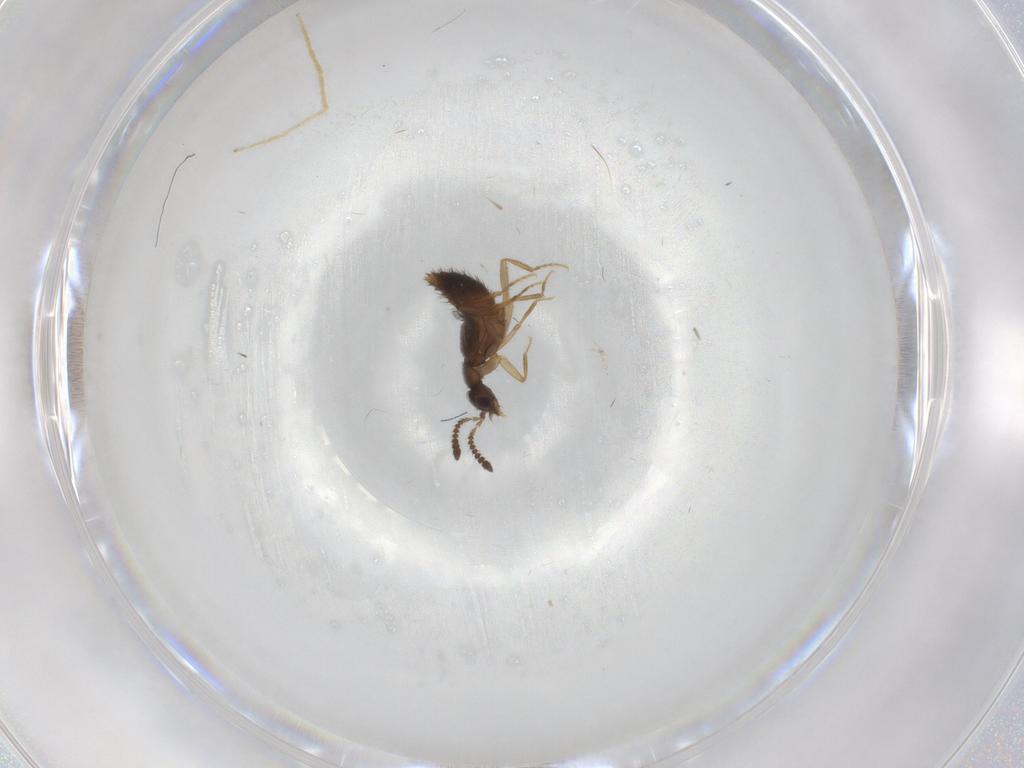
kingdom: Animalia
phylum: Arthropoda
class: Insecta
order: Coleoptera
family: Staphylinidae
